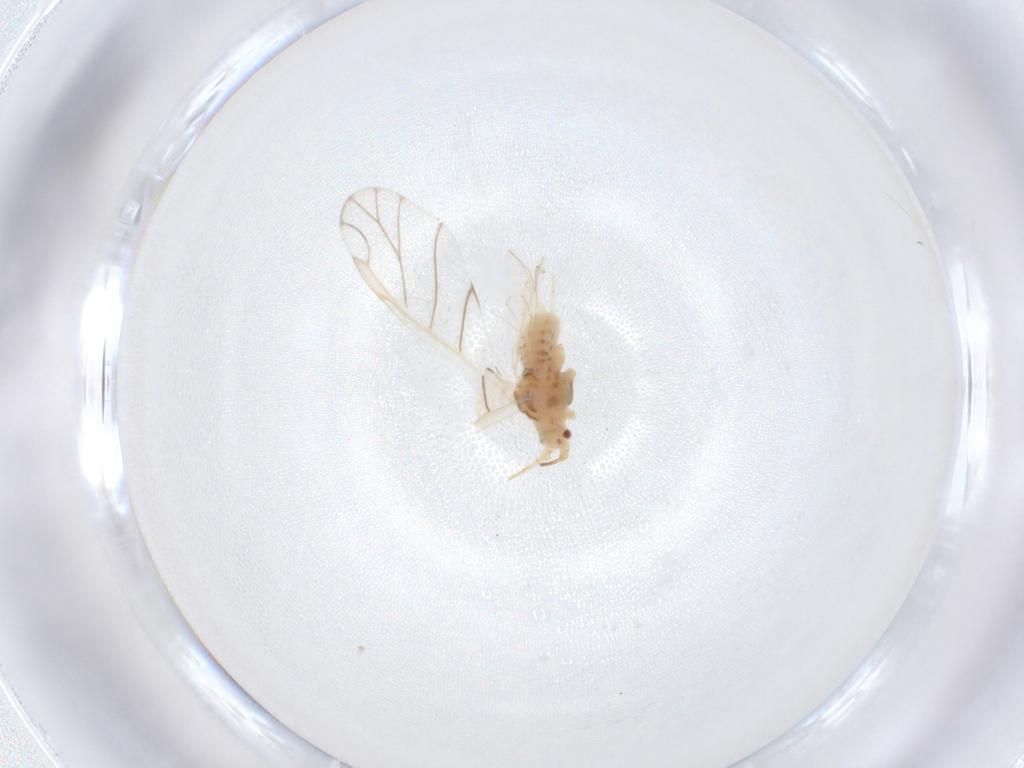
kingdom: Animalia
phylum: Arthropoda
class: Insecta
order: Hemiptera
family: Aphididae
